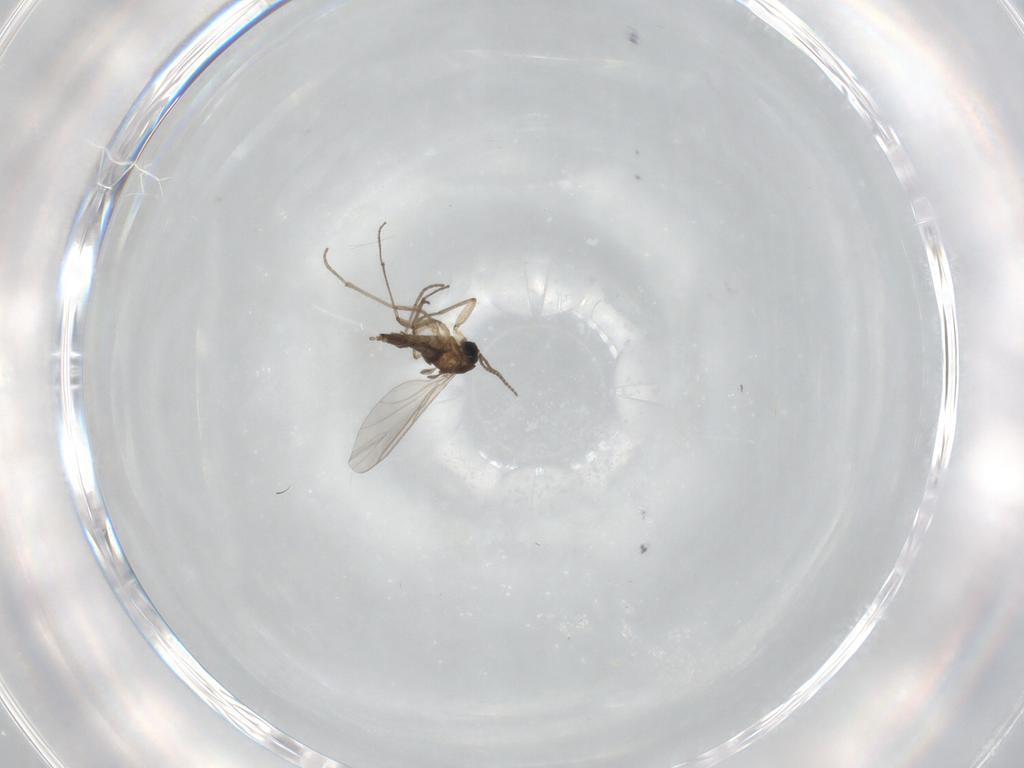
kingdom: Animalia
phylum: Arthropoda
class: Insecta
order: Diptera
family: Sciaridae
